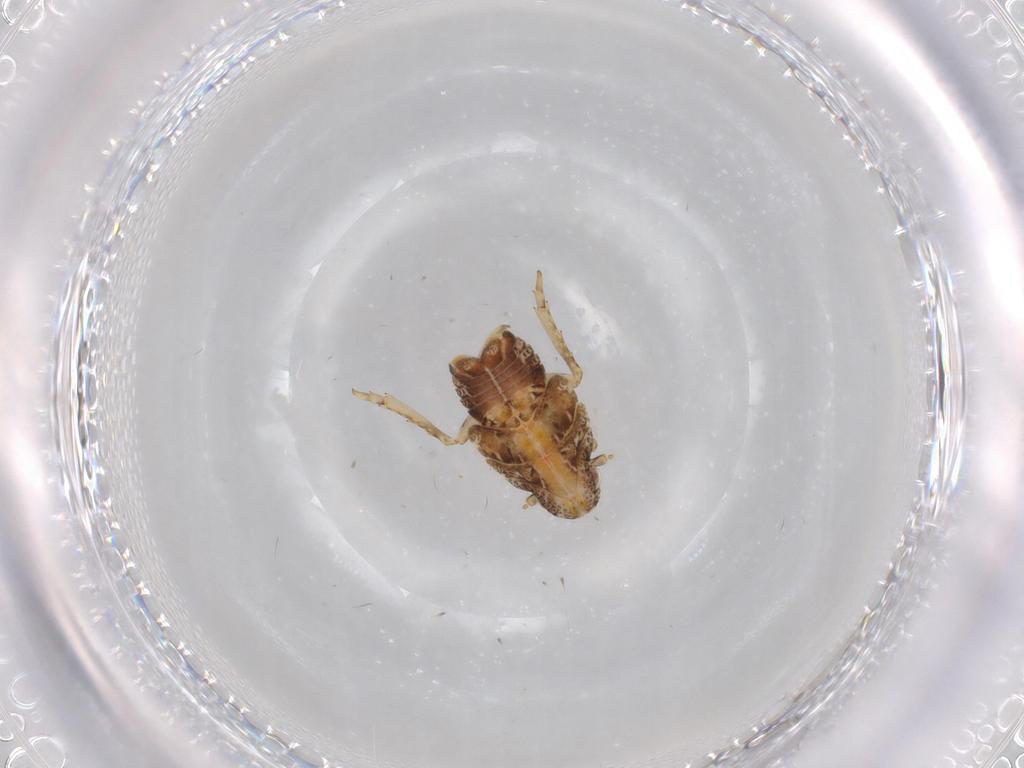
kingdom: Animalia
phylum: Arthropoda
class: Insecta
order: Hemiptera
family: Flatidae
